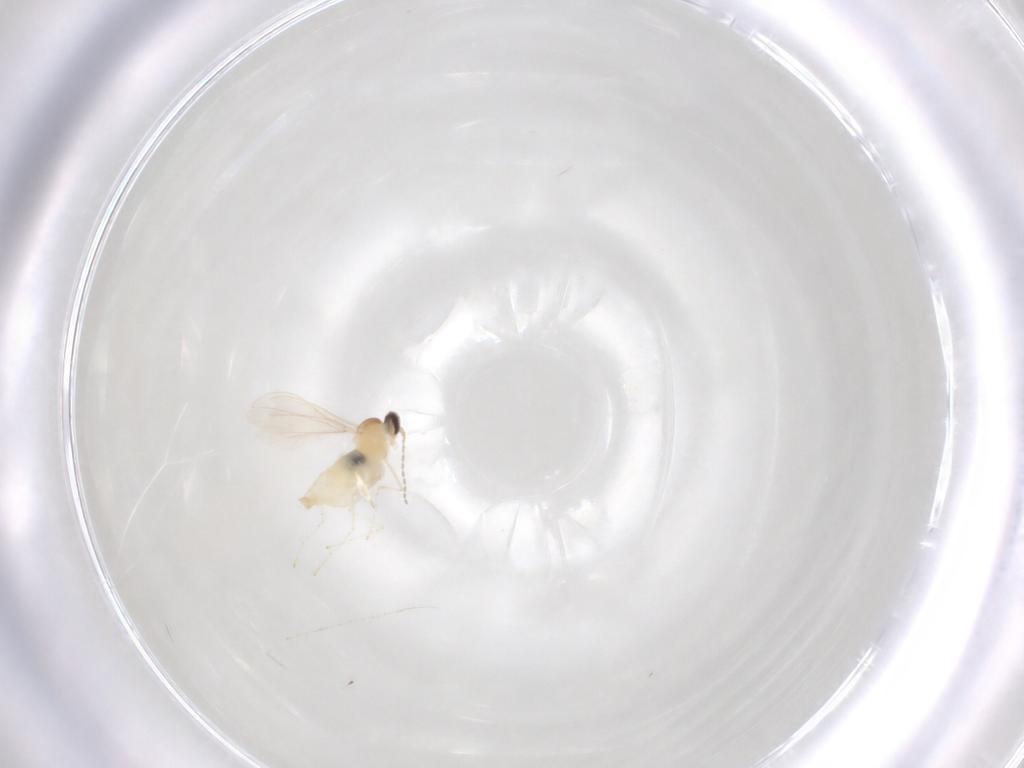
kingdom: Animalia
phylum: Arthropoda
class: Insecta
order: Diptera
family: Cecidomyiidae
